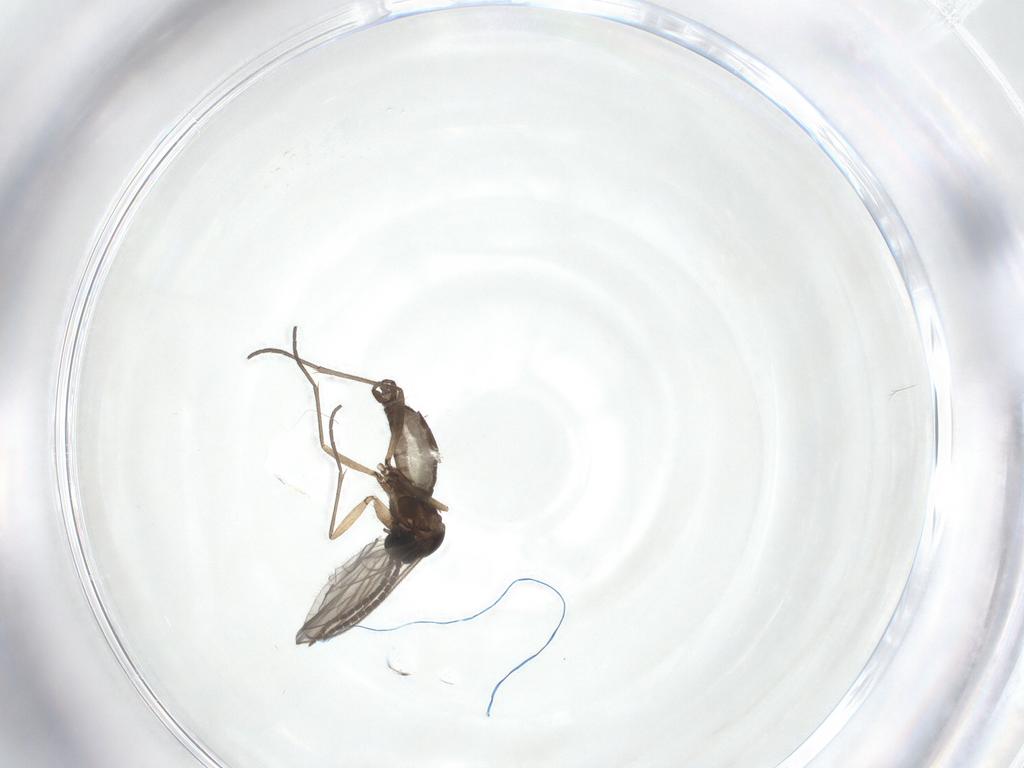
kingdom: Animalia
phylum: Arthropoda
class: Insecta
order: Diptera
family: Sciaridae
